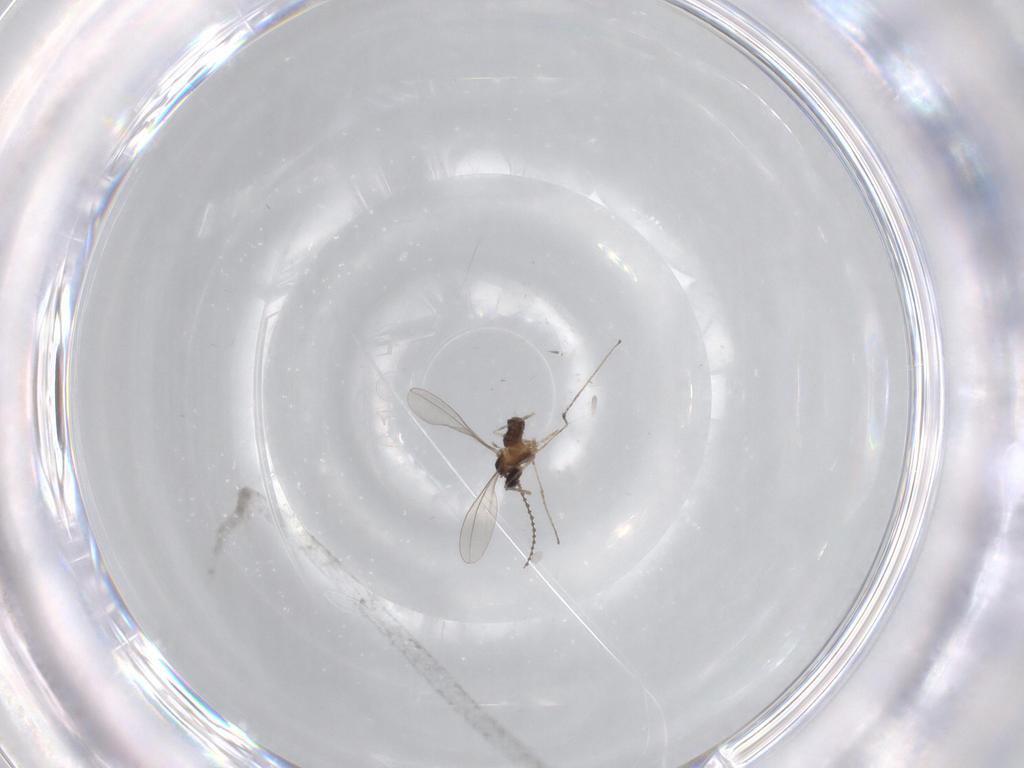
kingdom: Animalia
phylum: Arthropoda
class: Insecta
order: Diptera
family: Cecidomyiidae
